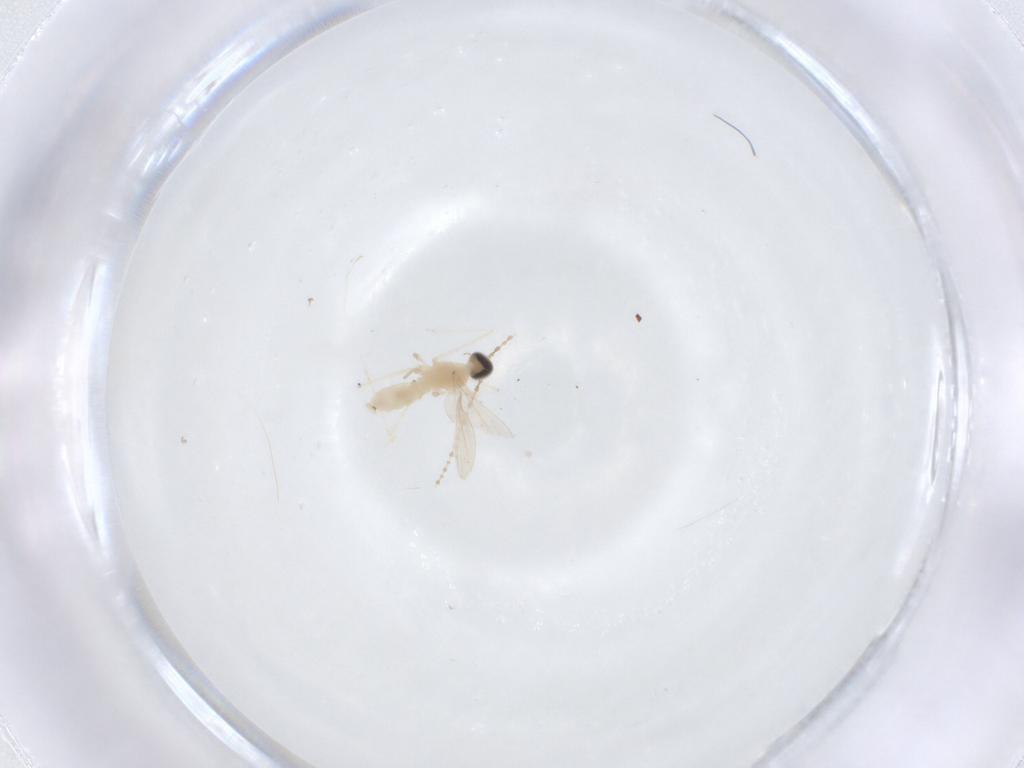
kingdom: Animalia
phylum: Arthropoda
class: Insecta
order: Diptera
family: Cecidomyiidae
